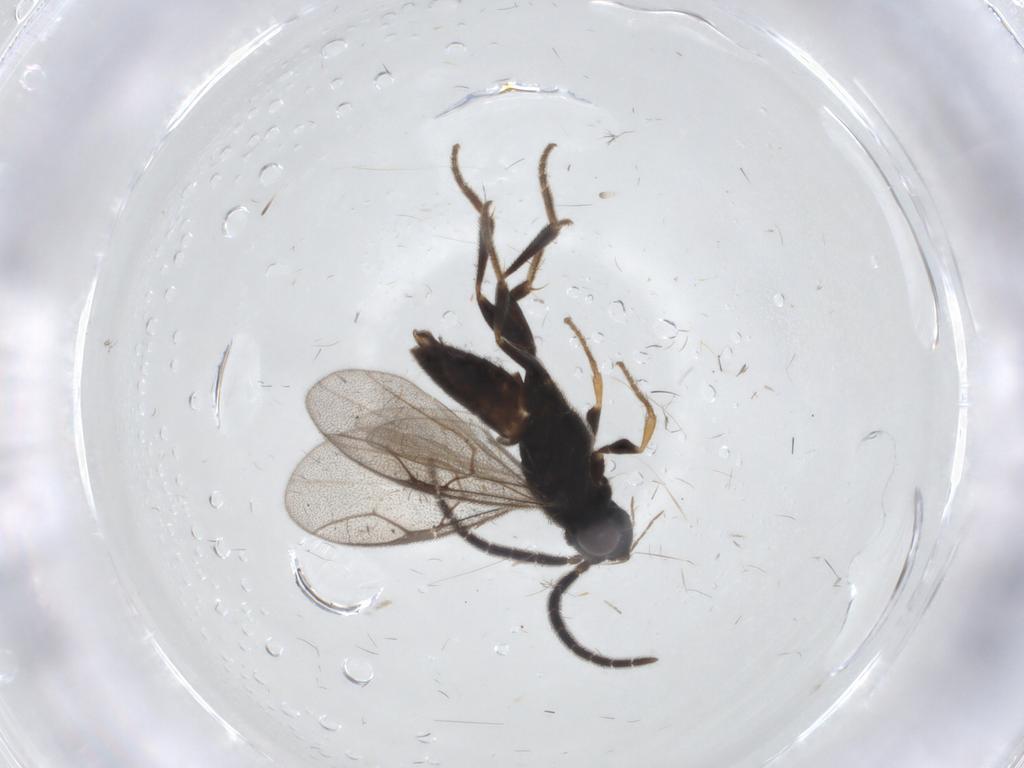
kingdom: Animalia
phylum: Arthropoda
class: Insecta
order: Hymenoptera
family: Dryinidae
